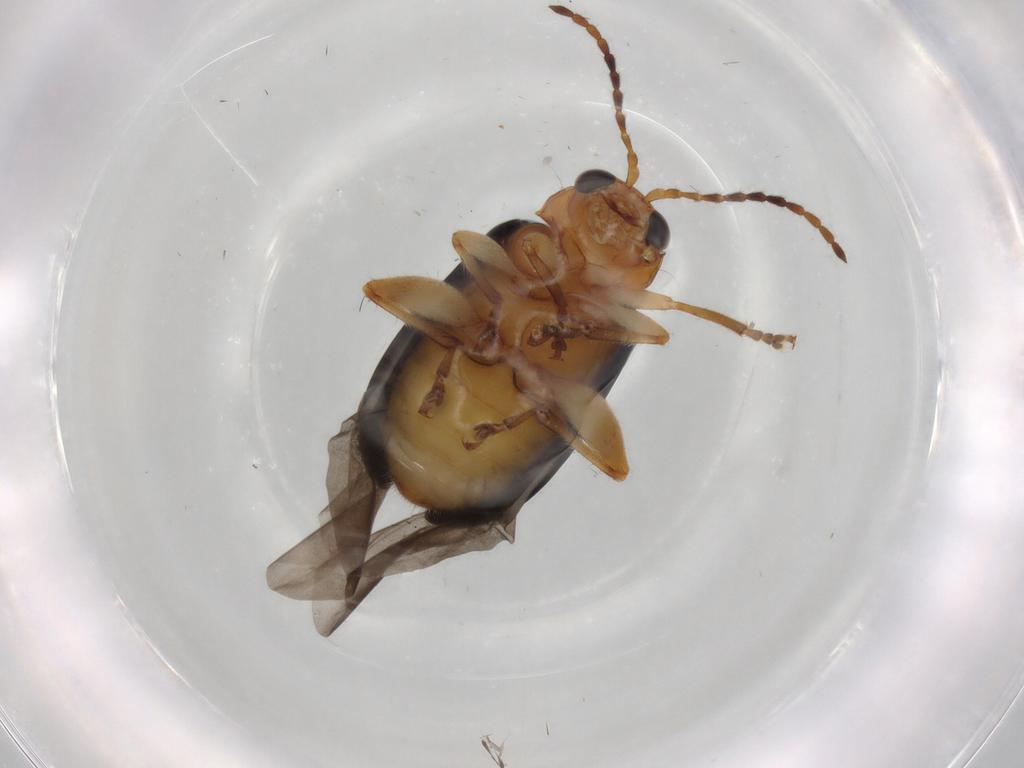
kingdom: Animalia
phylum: Arthropoda
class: Insecta
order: Coleoptera
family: Chrysomelidae
